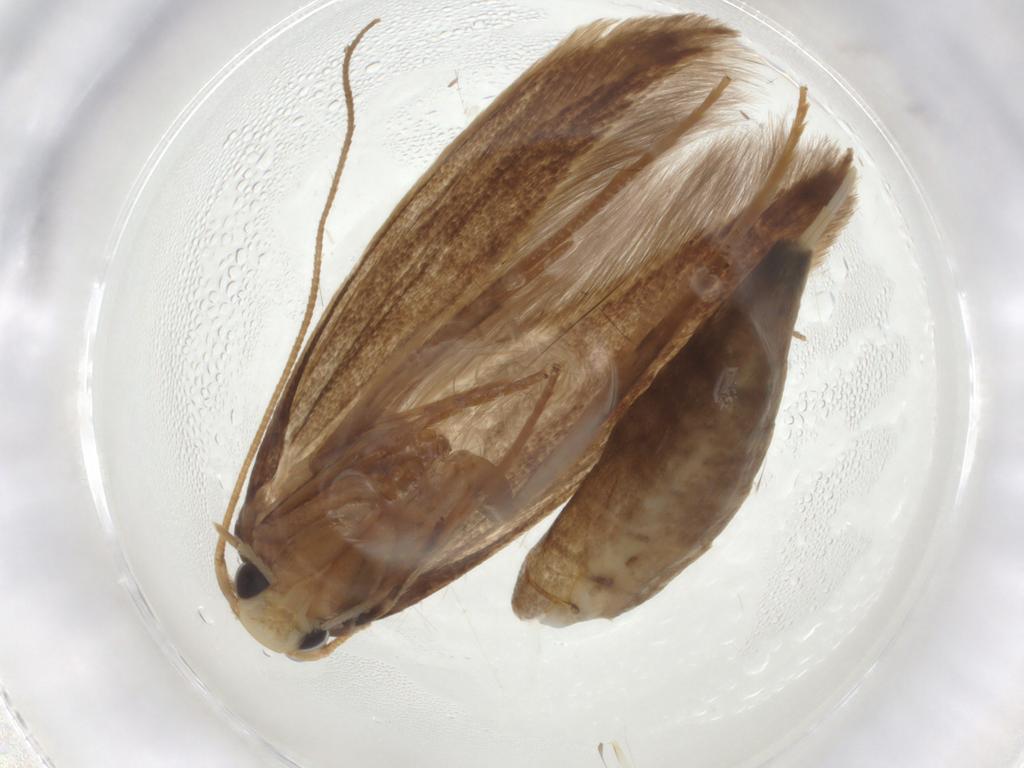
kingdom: Animalia
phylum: Arthropoda
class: Insecta
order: Lepidoptera
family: Tineidae
